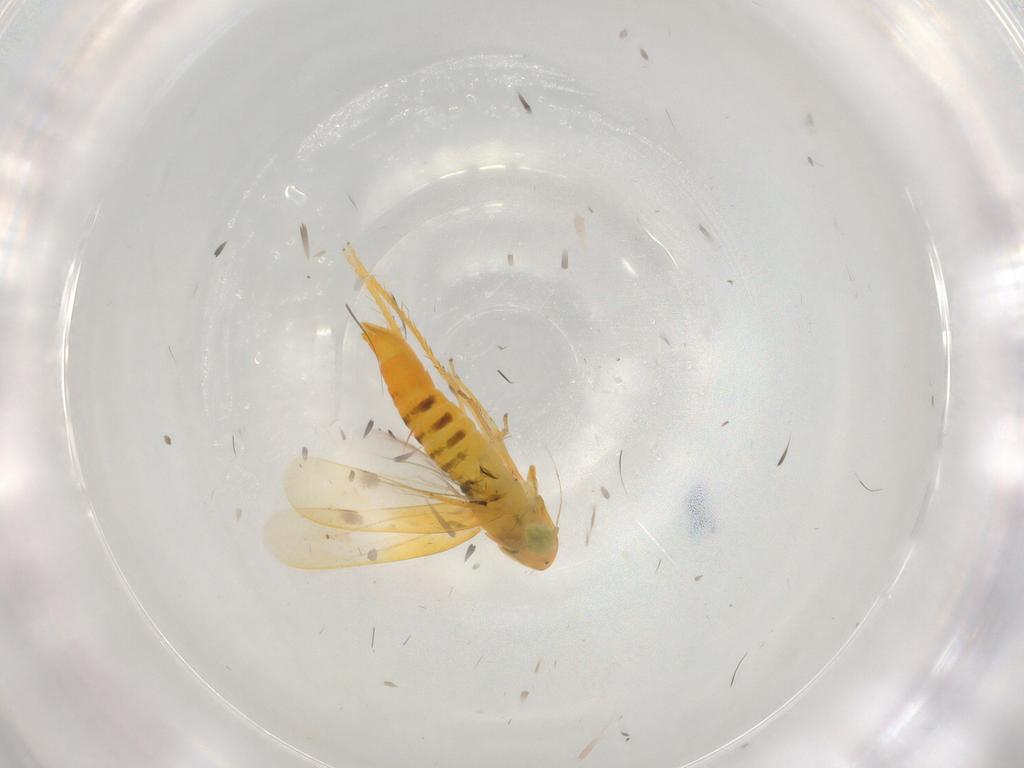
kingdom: Animalia
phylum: Arthropoda
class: Insecta
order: Hemiptera
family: Cicadellidae
